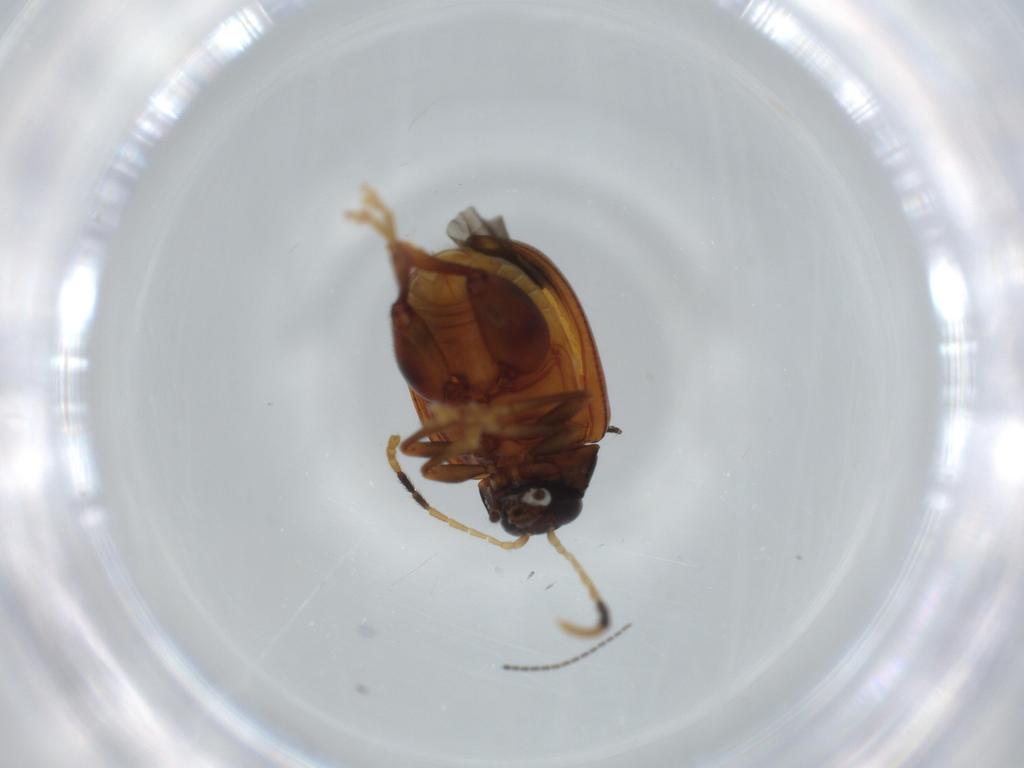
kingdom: Animalia
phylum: Arthropoda
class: Insecta
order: Coleoptera
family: Chrysomelidae
